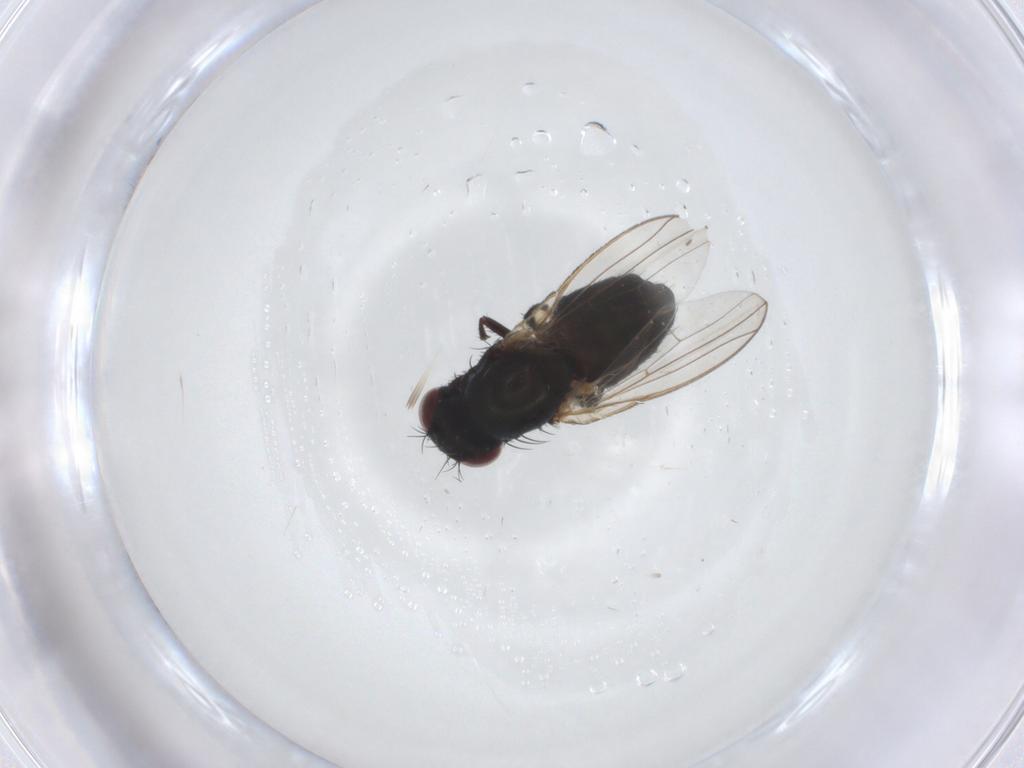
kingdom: Animalia
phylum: Arthropoda
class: Insecta
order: Diptera
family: Carnidae
